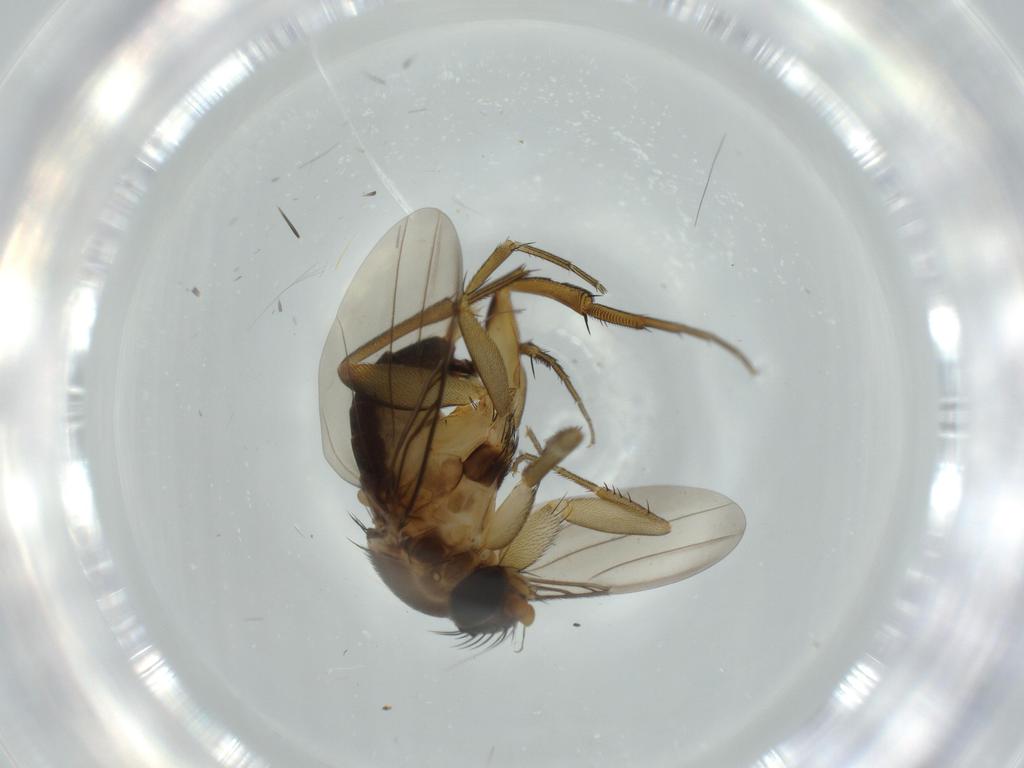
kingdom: Animalia
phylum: Arthropoda
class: Insecta
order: Diptera
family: Phoridae
